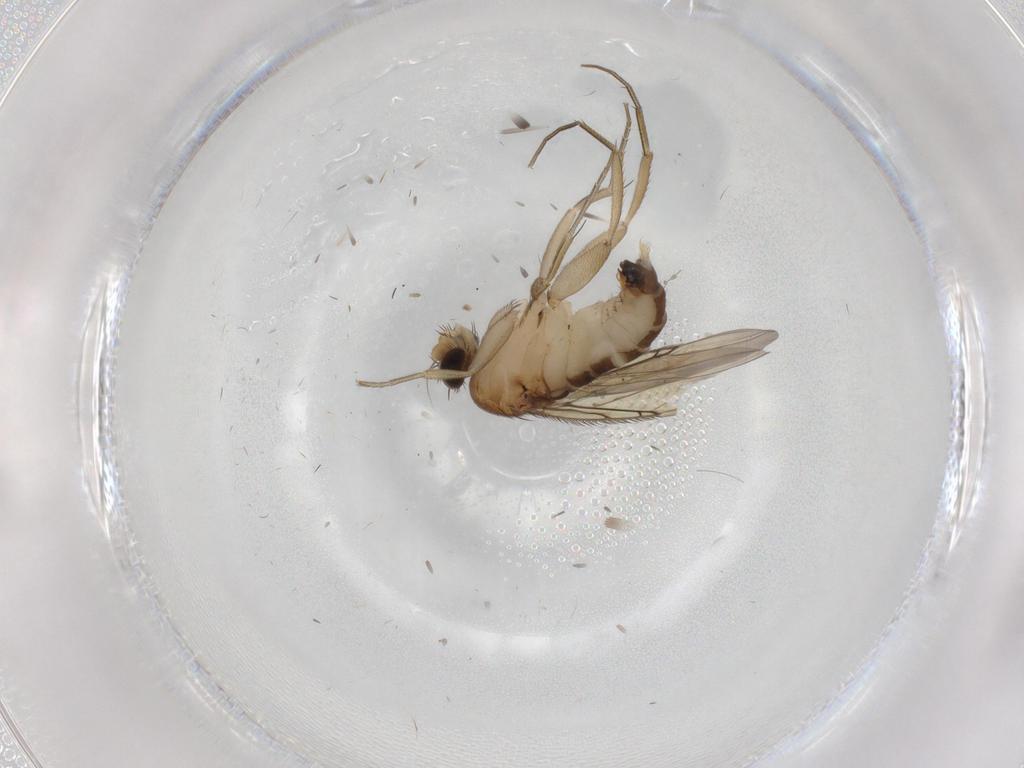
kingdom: Animalia
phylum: Arthropoda
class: Insecta
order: Diptera
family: Phoridae
